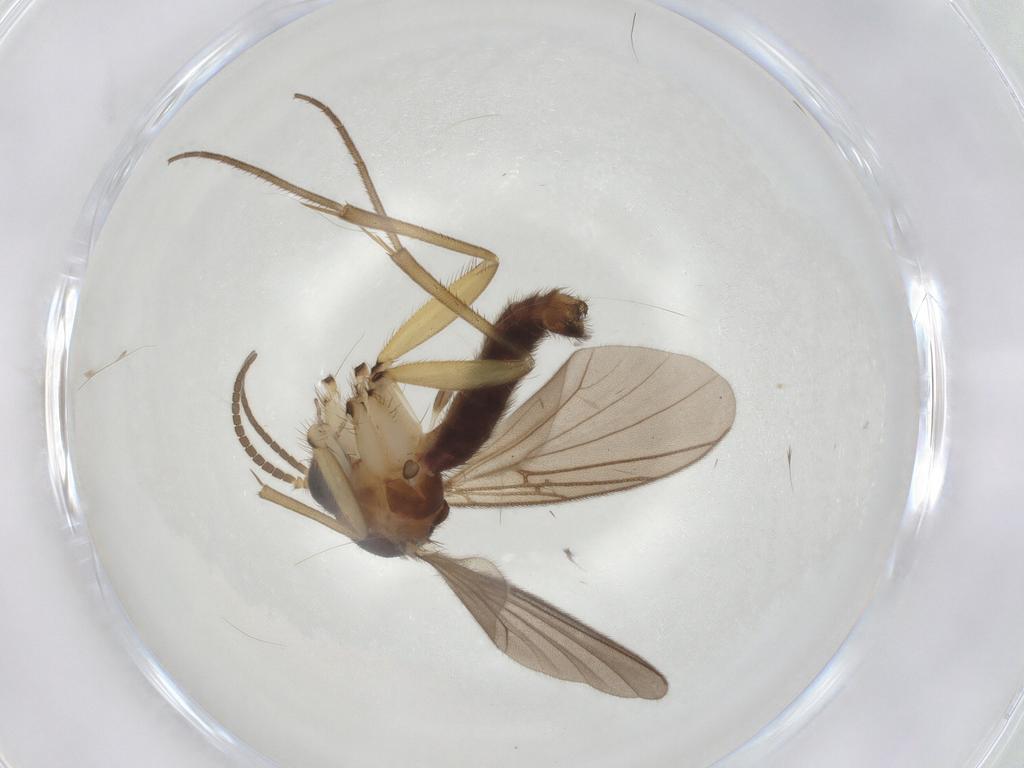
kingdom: Animalia
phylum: Arthropoda
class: Insecta
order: Diptera
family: Mycetophilidae
